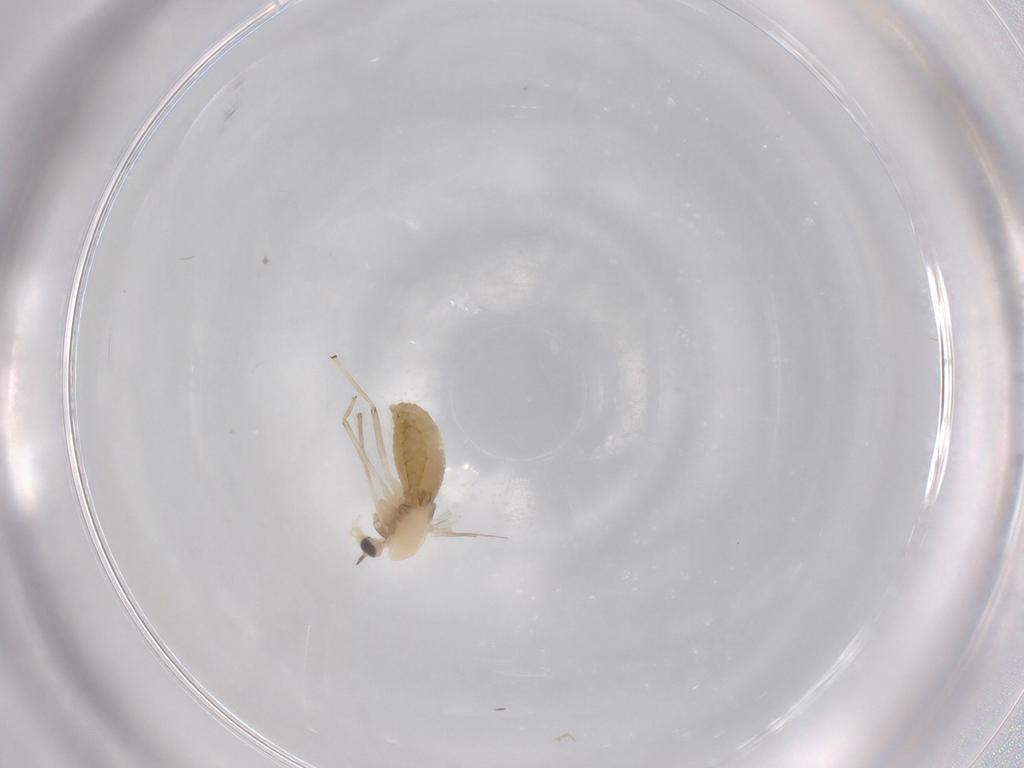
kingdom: Animalia
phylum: Arthropoda
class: Insecta
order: Diptera
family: Chironomidae
